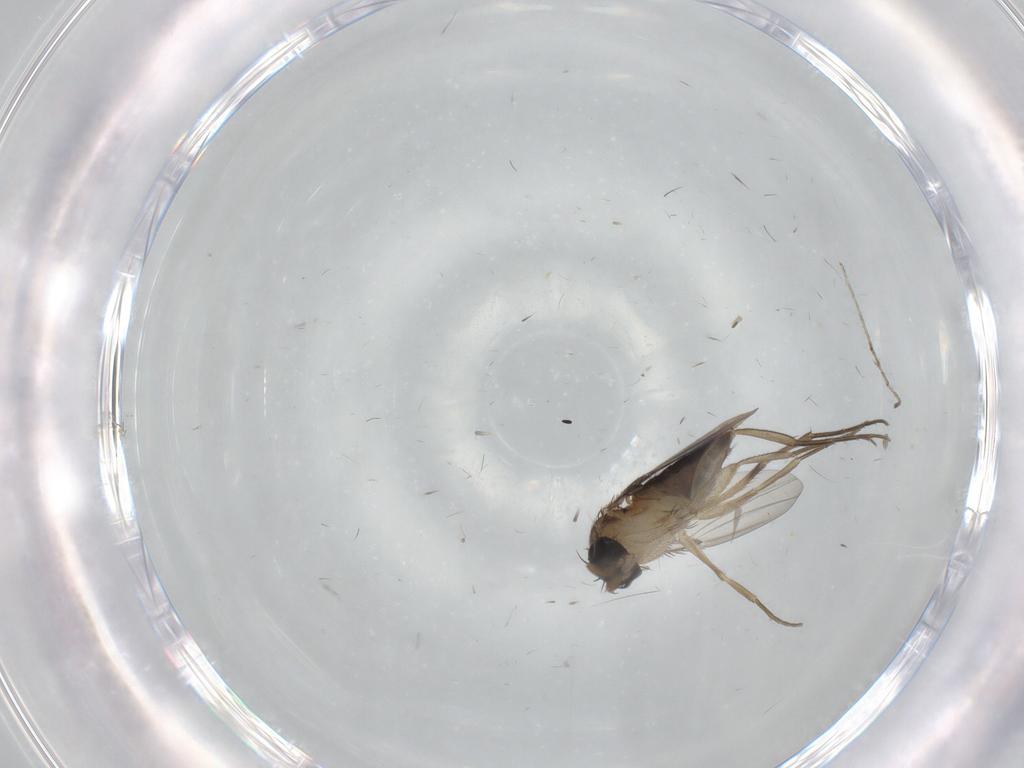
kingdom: Animalia
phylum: Arthropoda
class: Insecta
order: Diptera
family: Phoridae
